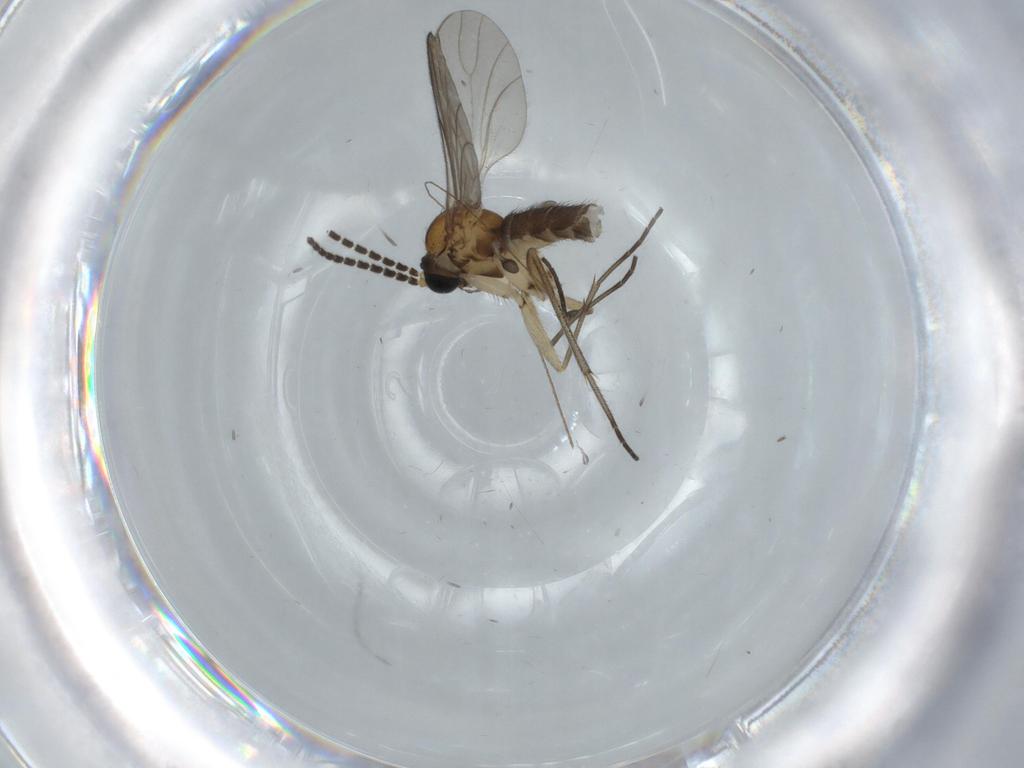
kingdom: Animalia
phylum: Arthropoda
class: Insecta
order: Diptera
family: Sciaridae
